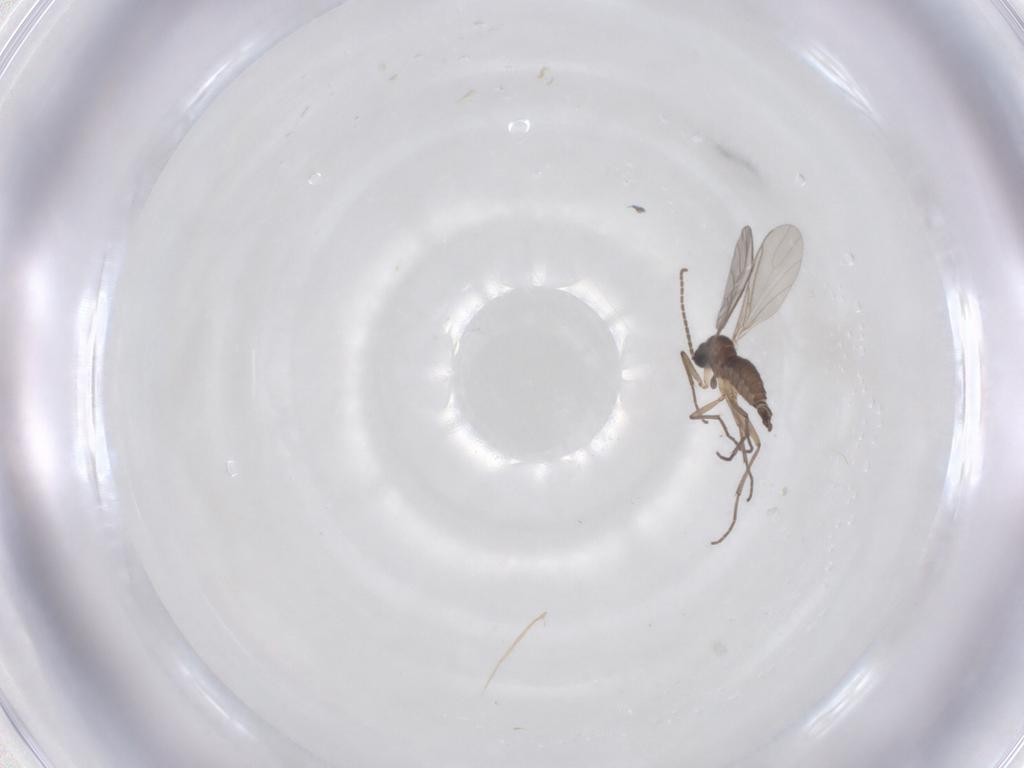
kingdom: Animalia
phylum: Arthropoda
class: Insecta
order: Diptera
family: Sciaridae
